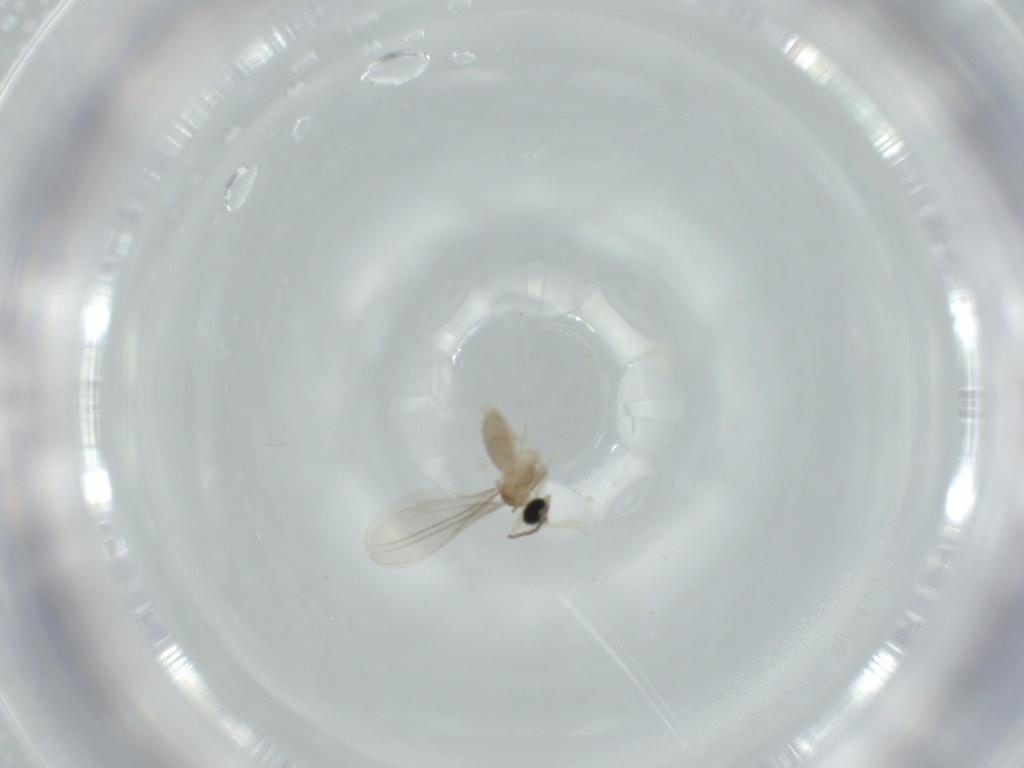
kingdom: Animalia
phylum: Arthropoda
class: Insecta
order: Diptera
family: Cecidomyiidae
